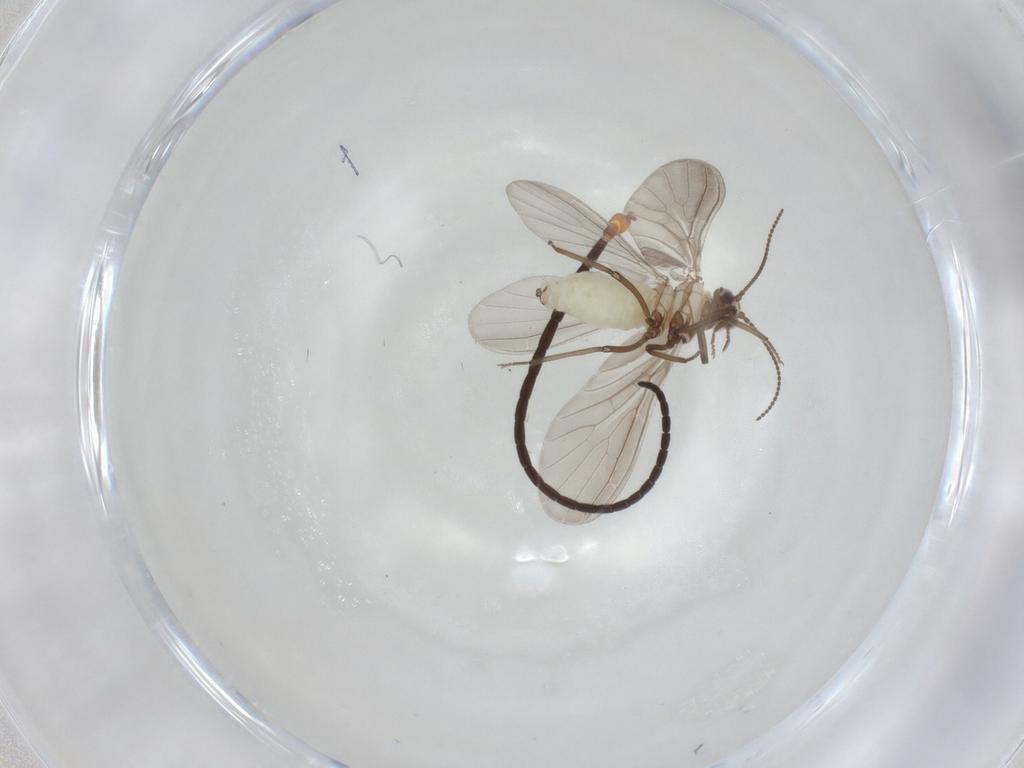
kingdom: Animalia
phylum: Arthropoda
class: Insecta
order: Neuroptera
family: Coniopterygidae
